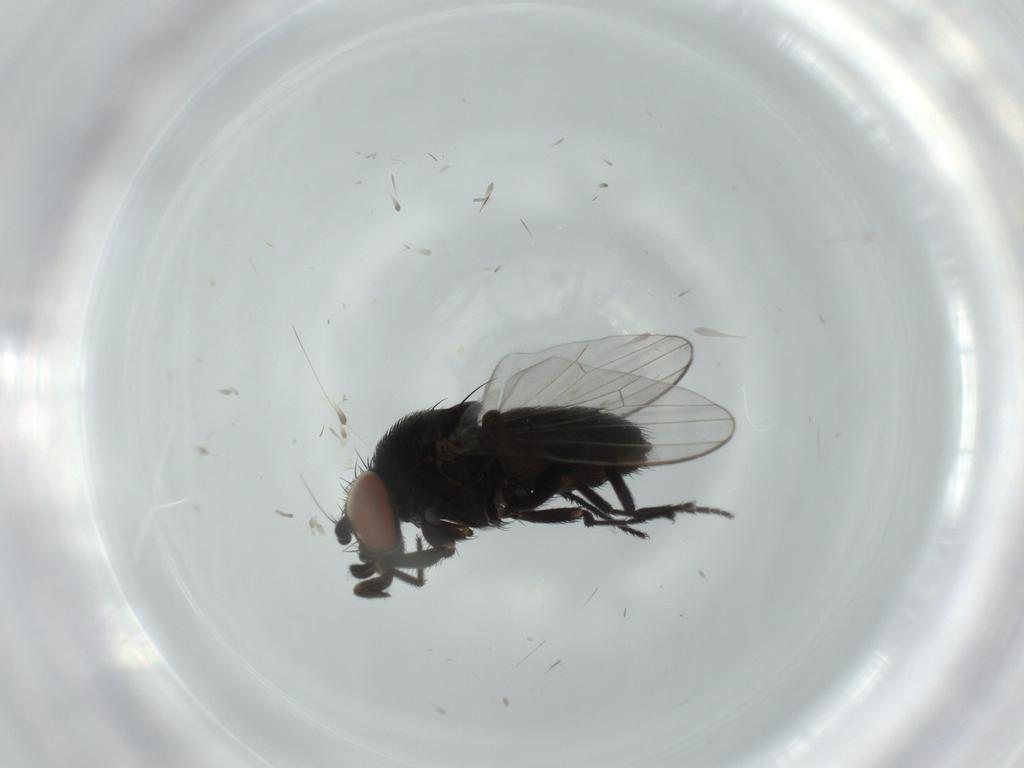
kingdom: Animalia
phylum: Arthropoda
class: Insecta
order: Diptera
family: Milichiidae
